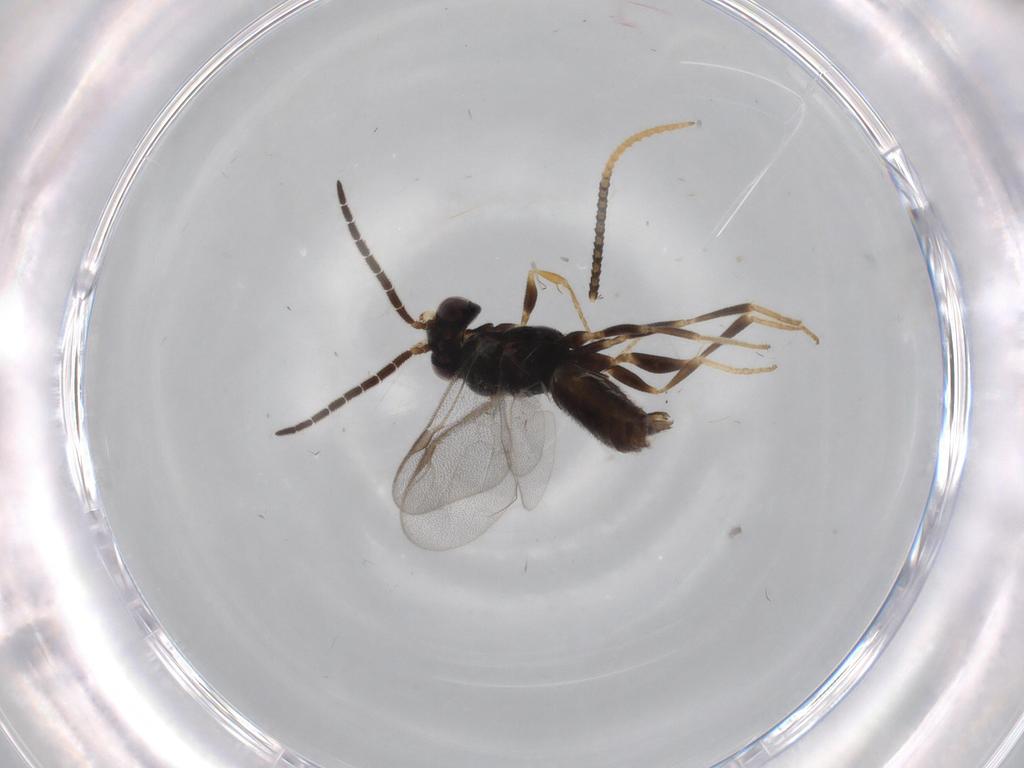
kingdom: Animalia
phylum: Arthropoda
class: Insecta
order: Hymenoptera
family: Dryinidae
